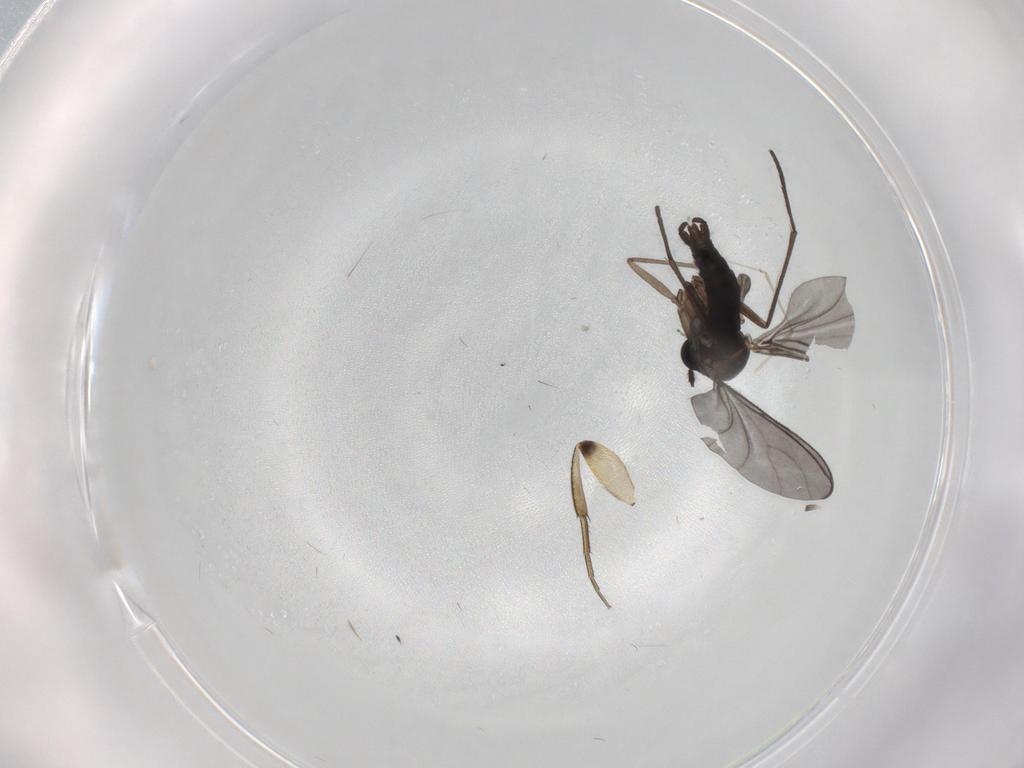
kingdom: Animalia
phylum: Arthropoda
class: Insecta
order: Diptera
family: Sciaridae
